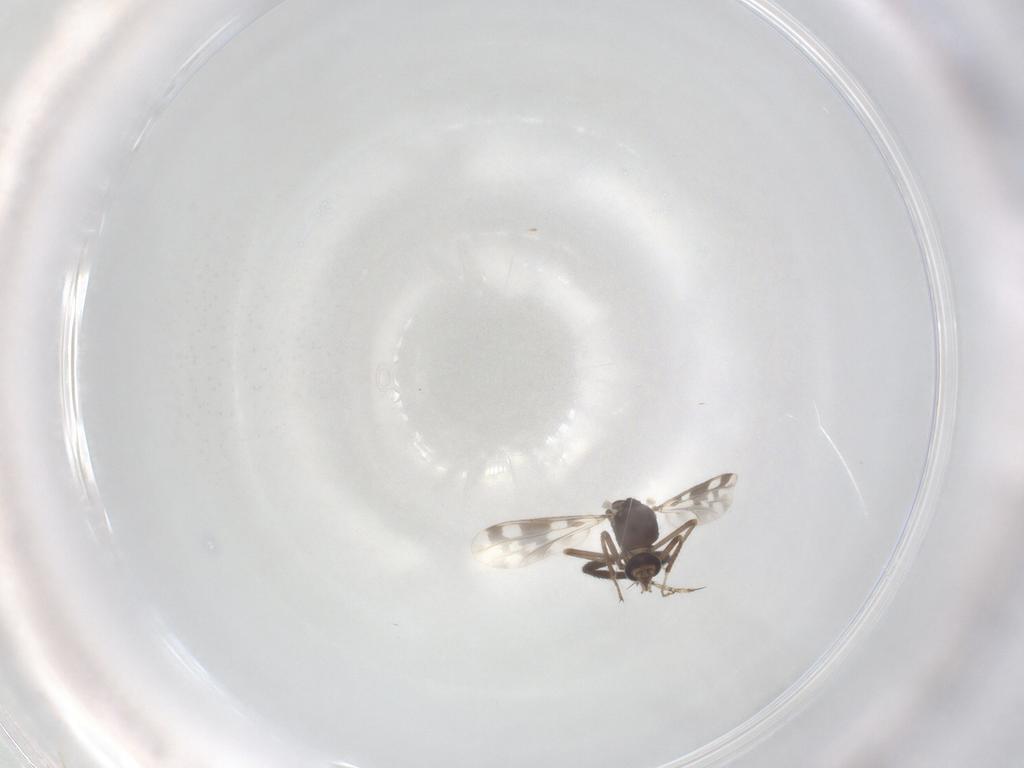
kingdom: Animalia
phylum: Arthropoda
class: Insecta
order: Diptera
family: Ceratopogonidae
